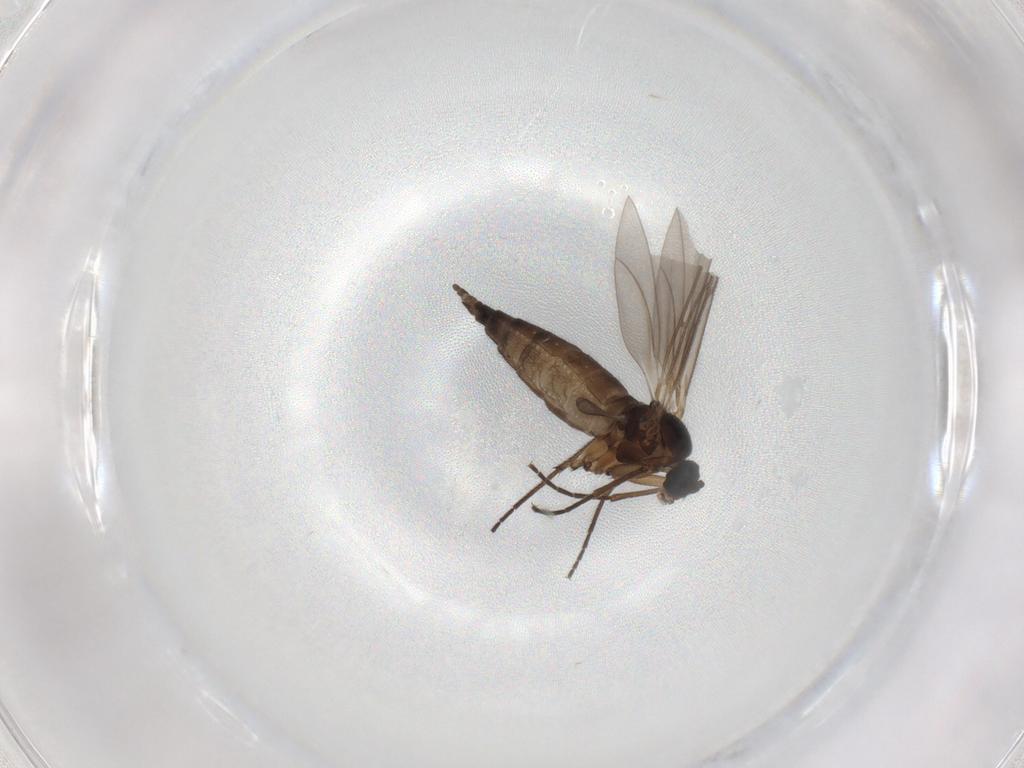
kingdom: Animalia
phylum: Arthropoda
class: Insecta
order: Diptera
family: Sciaridae
